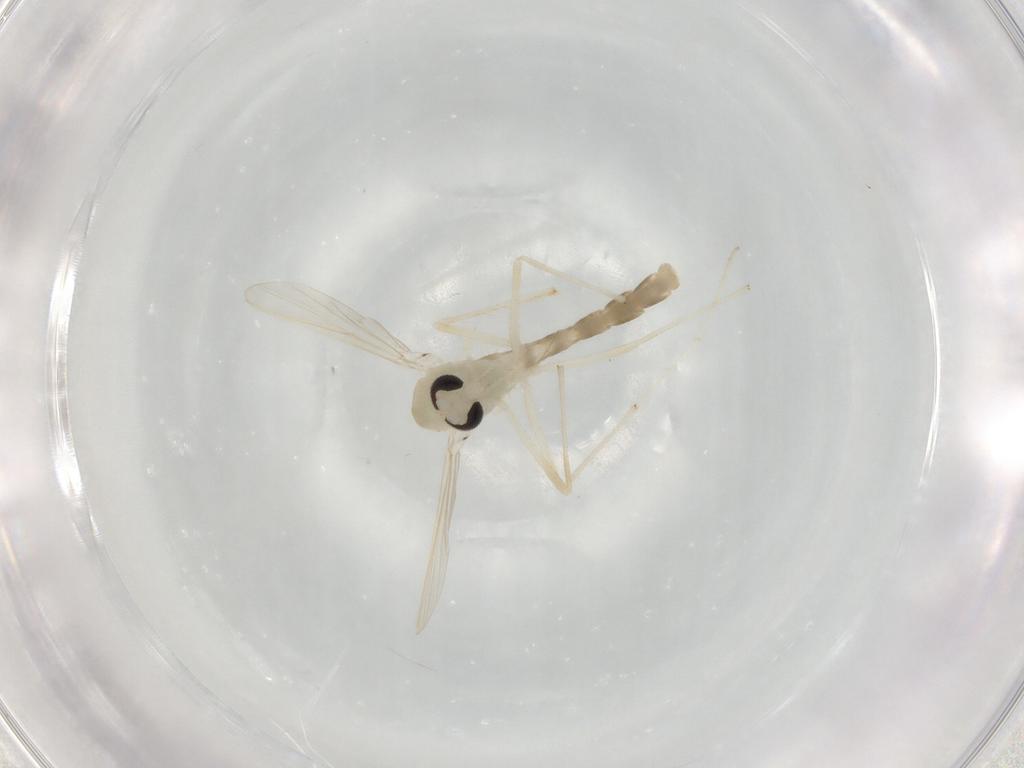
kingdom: Animalia
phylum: Arthropoda
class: Insecta
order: Diptera
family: Chironomidae
